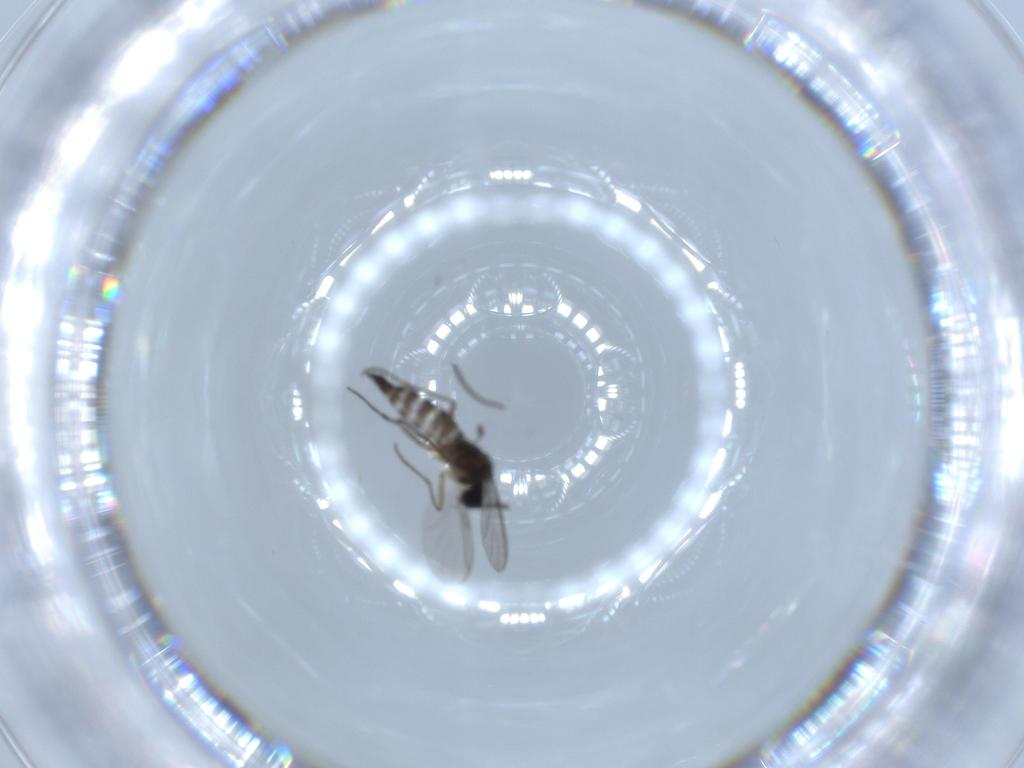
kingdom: Animalia
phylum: Arthropoda
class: Insecta
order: Diptera
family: Sciaridae
